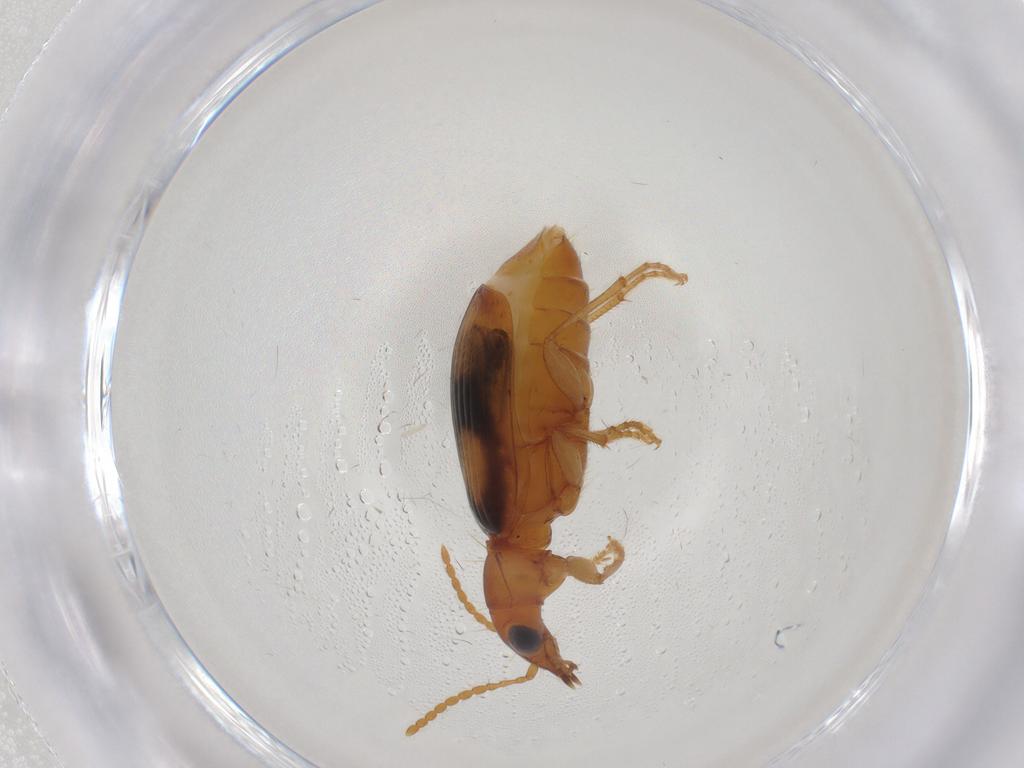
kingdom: Animalia
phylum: Arthropoda
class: Insecta
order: Coleoptera
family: Carabidae
